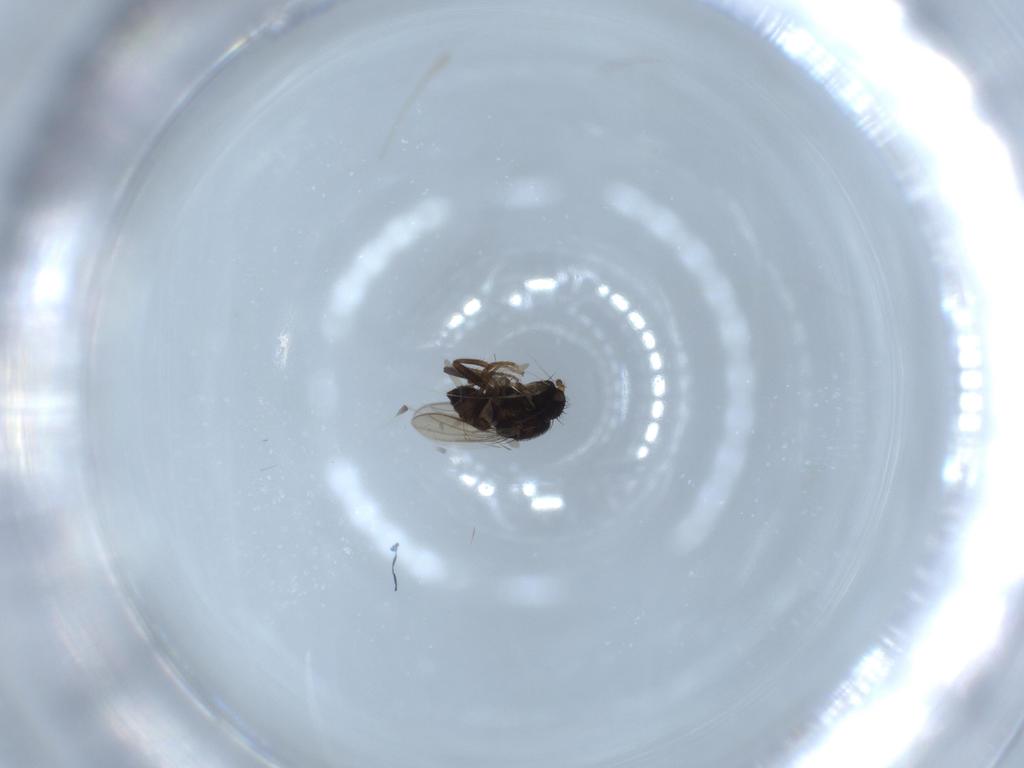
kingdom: Animalia
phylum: Arthropoda
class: Insecta
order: Diptera
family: Sphaeroceridae
